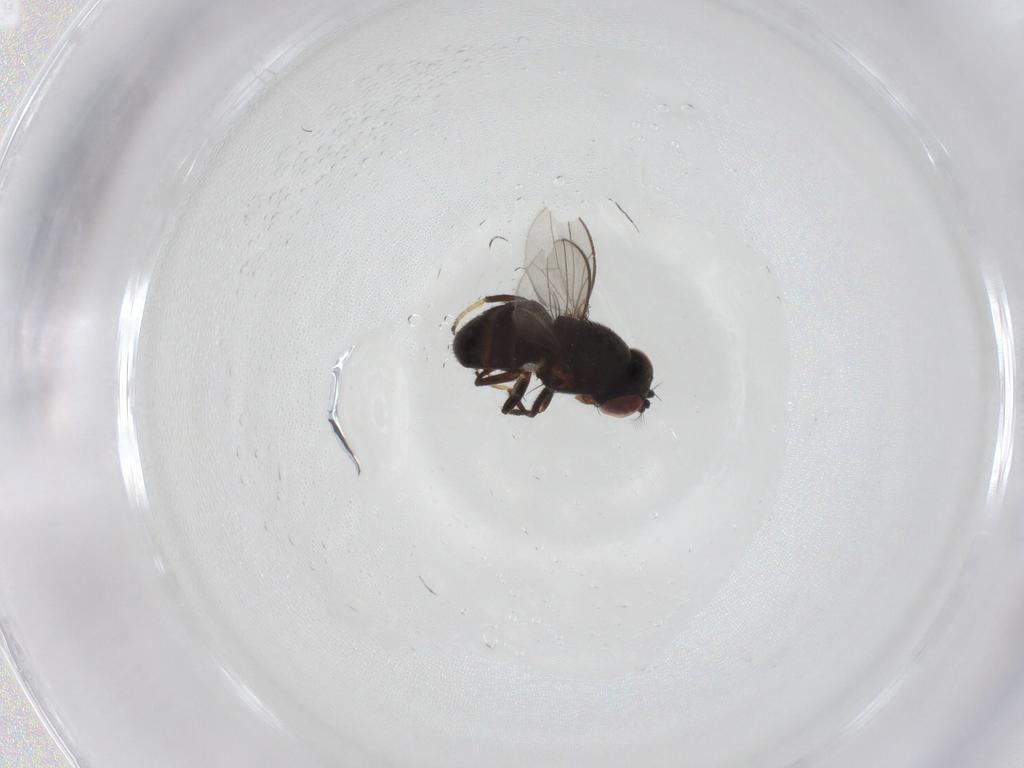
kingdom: Animalia
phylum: Arthropoda
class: Insecta
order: Diptera
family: Ephydridae
